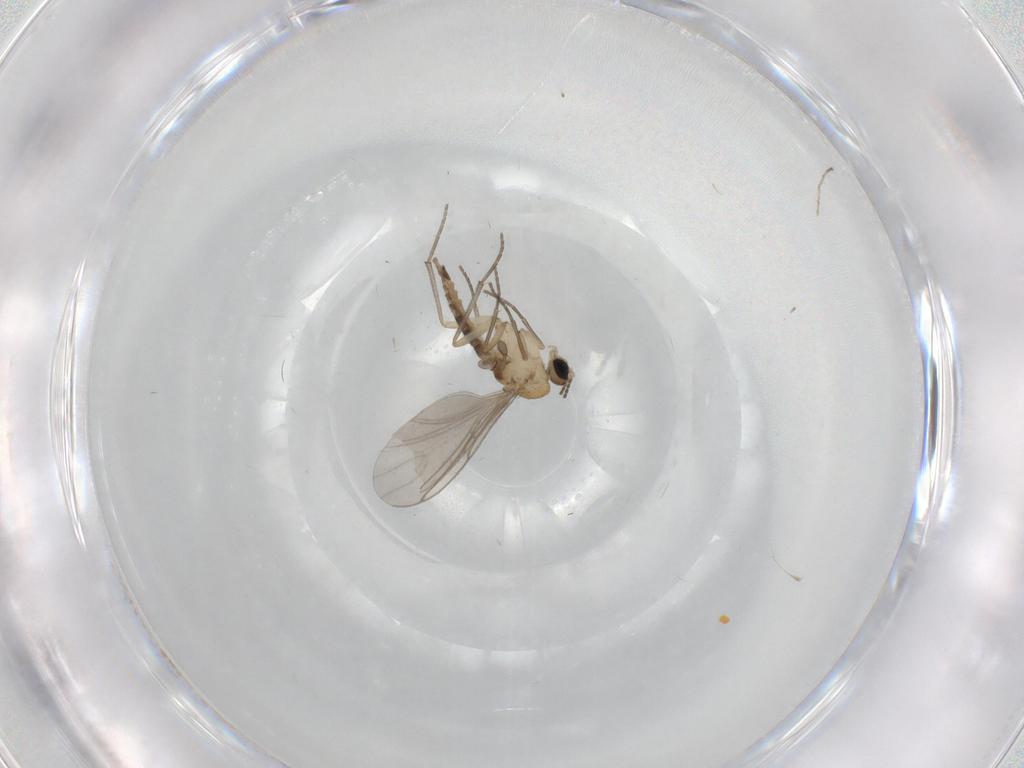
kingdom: Animalia
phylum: Arthropoda
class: Insecta
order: Diptera
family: Sciaridae
